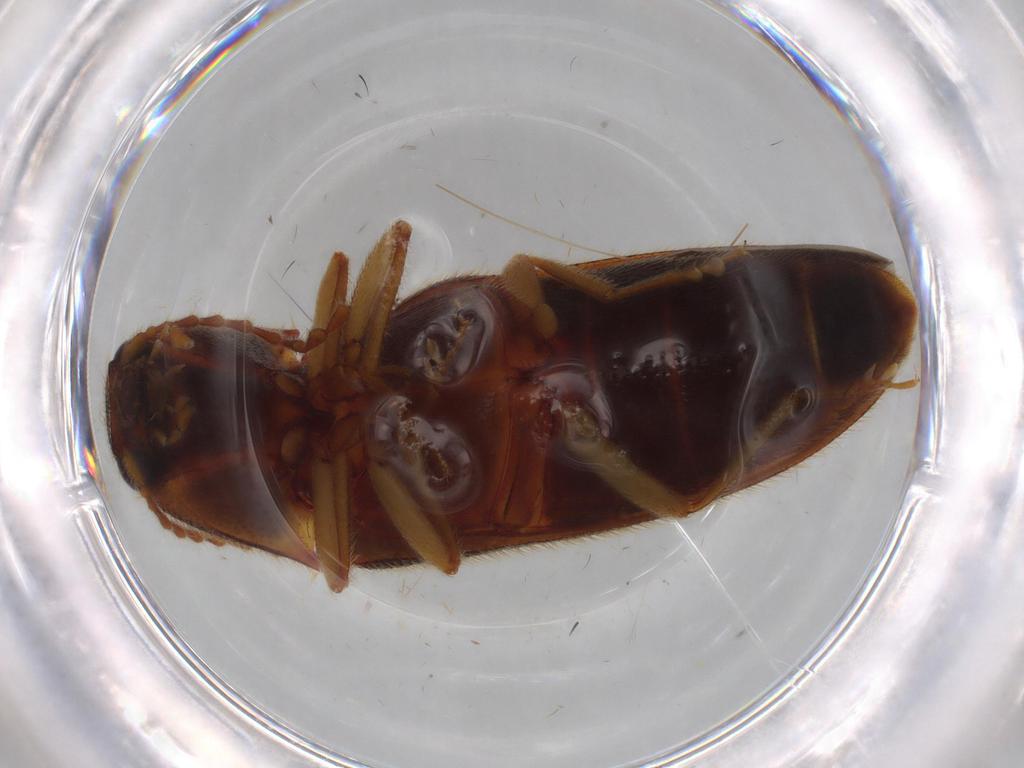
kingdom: Animalia
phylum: Arthropoda
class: Insecta
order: Coleoptera
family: Elateridae
